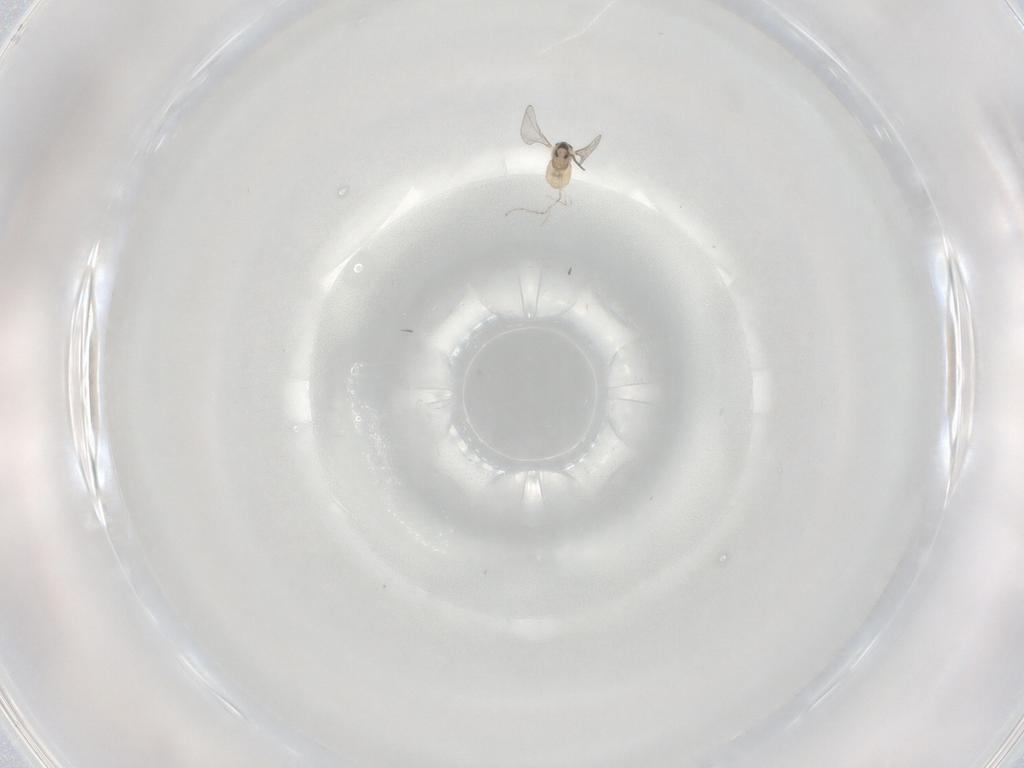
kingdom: Animalia
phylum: Arthropoda
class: Insecta
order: Diptera
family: Cecidomyiidae
